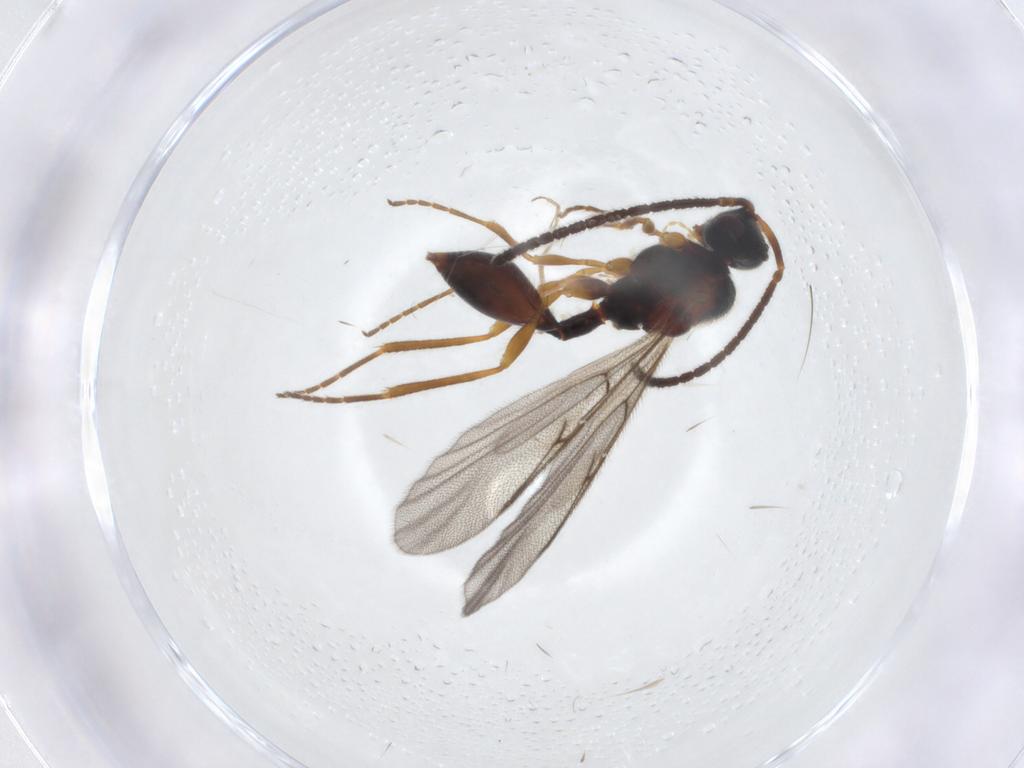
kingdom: Animalia
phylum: Arthropoda
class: Insecta
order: Hymenoptera
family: Diapriidae
